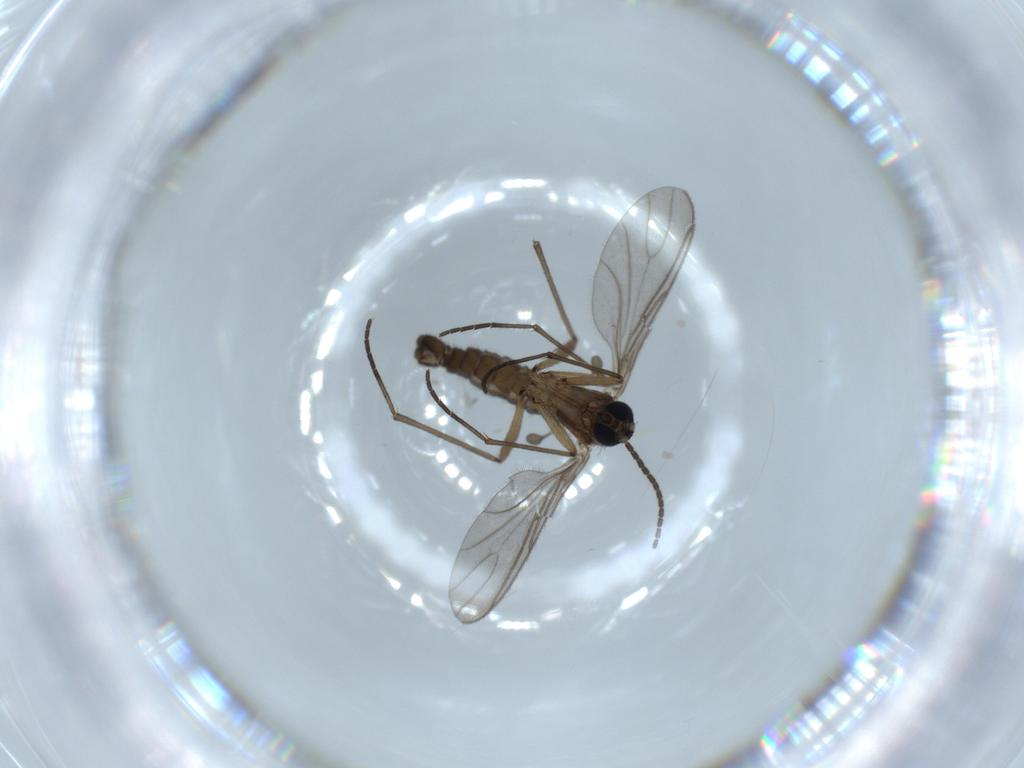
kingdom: Animalia
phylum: Arthropoda
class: Insecta
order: Diptera
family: Sciaridae
